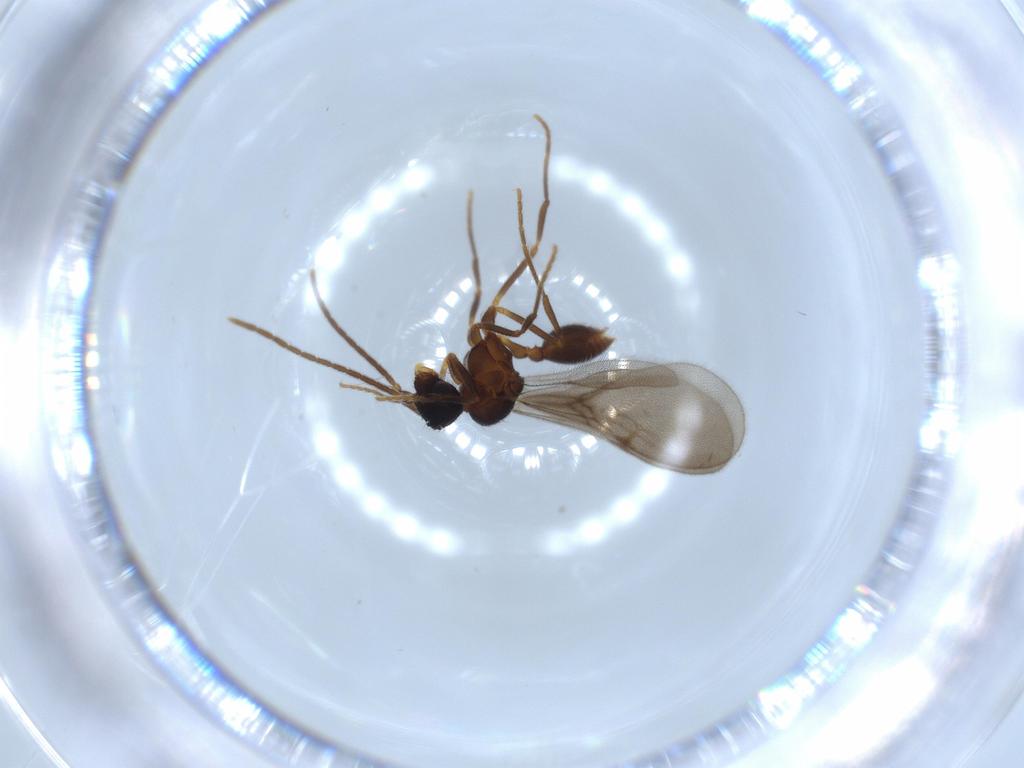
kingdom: Animalia
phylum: Arthropoda
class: Insecta
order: Hymenoptera
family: Formicidae
